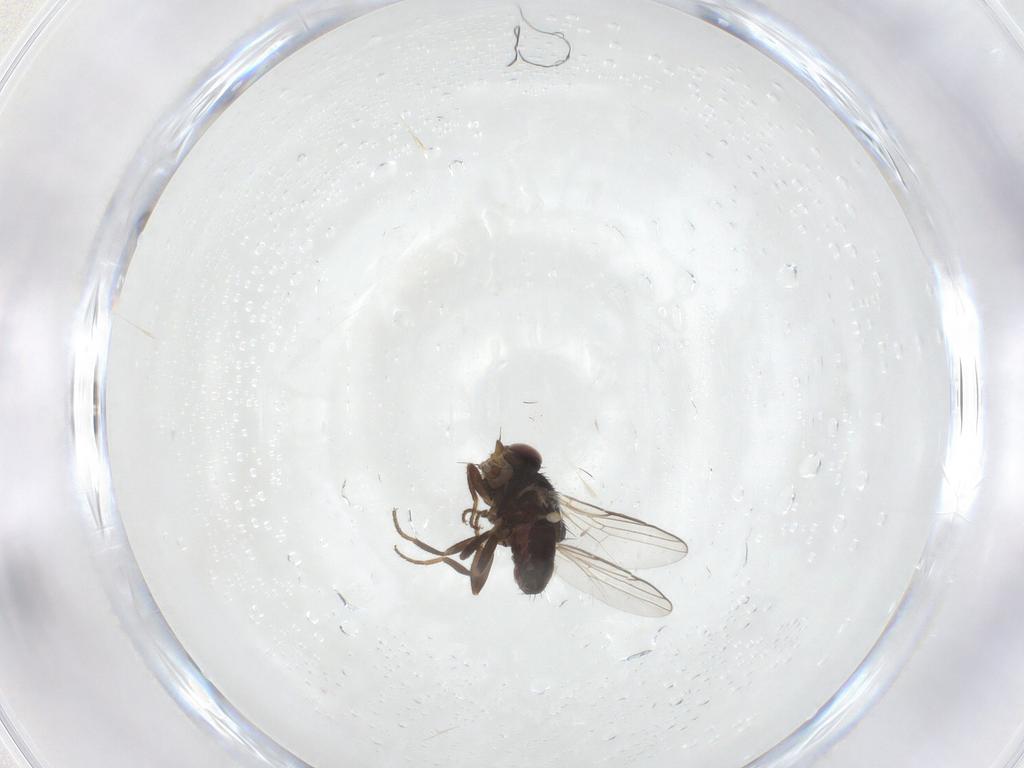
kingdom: Animalia
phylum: Arthropoda
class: Insecta
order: Diptera
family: Chloropidae
